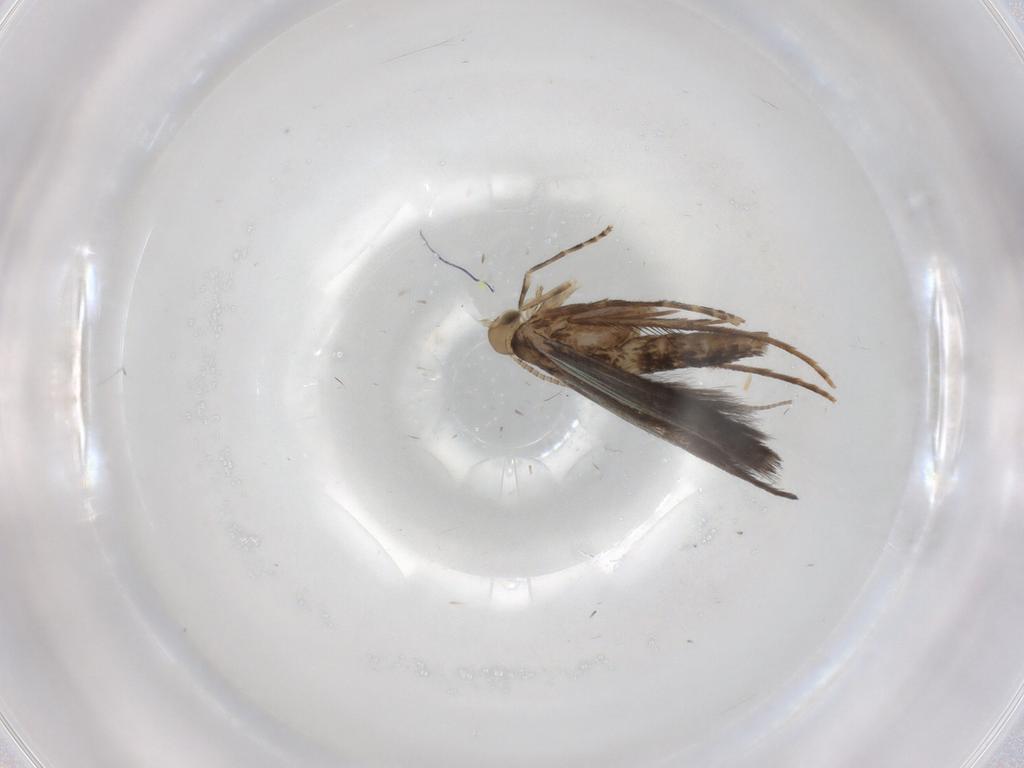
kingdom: Animalia
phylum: Arthropoda
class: Insecta
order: Lepidoptera
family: Gracillariidae
